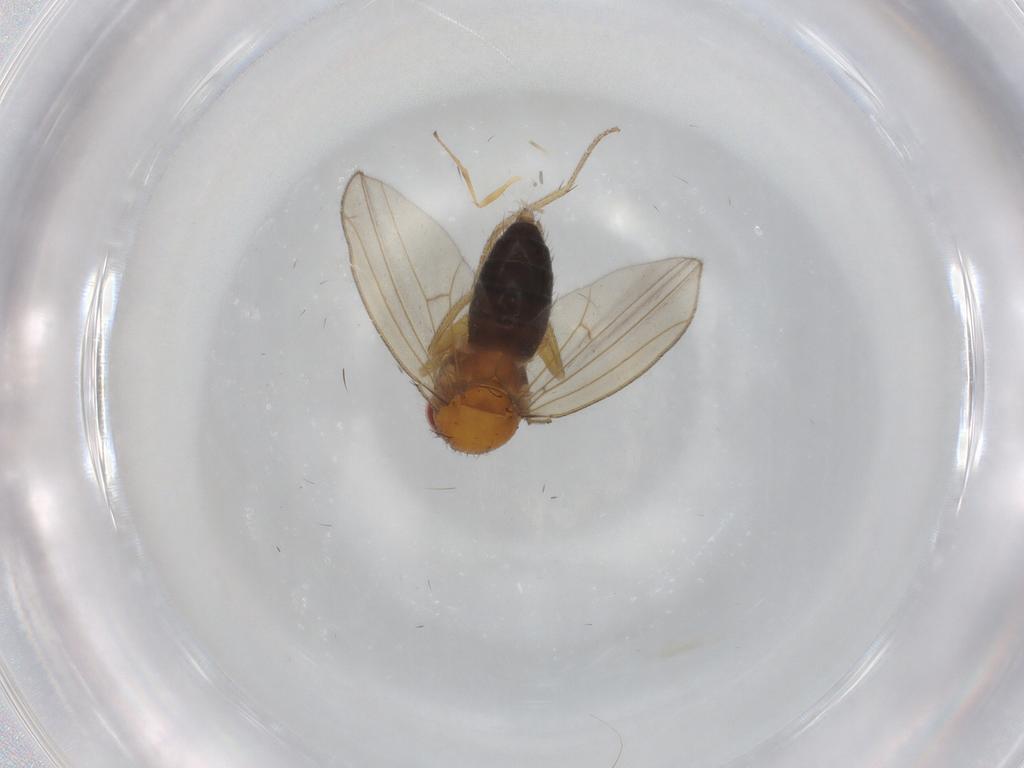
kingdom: Animalia
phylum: Arthropoda
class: Insecta
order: Diptera
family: Drosophilidae
